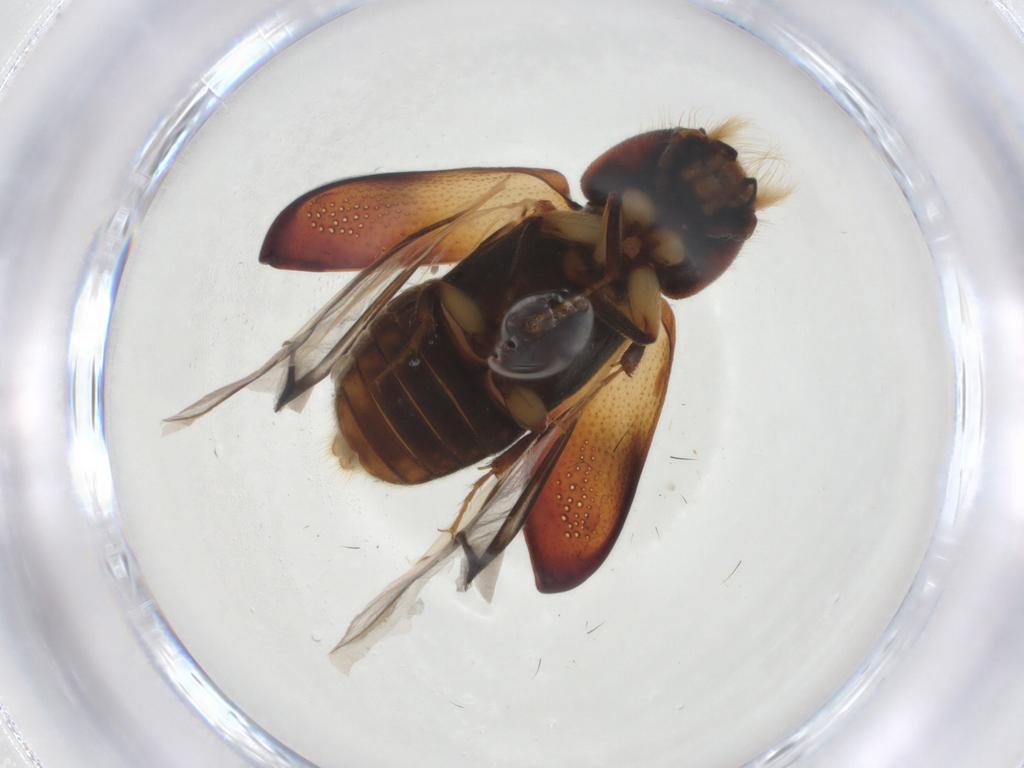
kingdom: Animalia
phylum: Arthropoda
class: Insecta
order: Coleoptera
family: Bostrichidae
